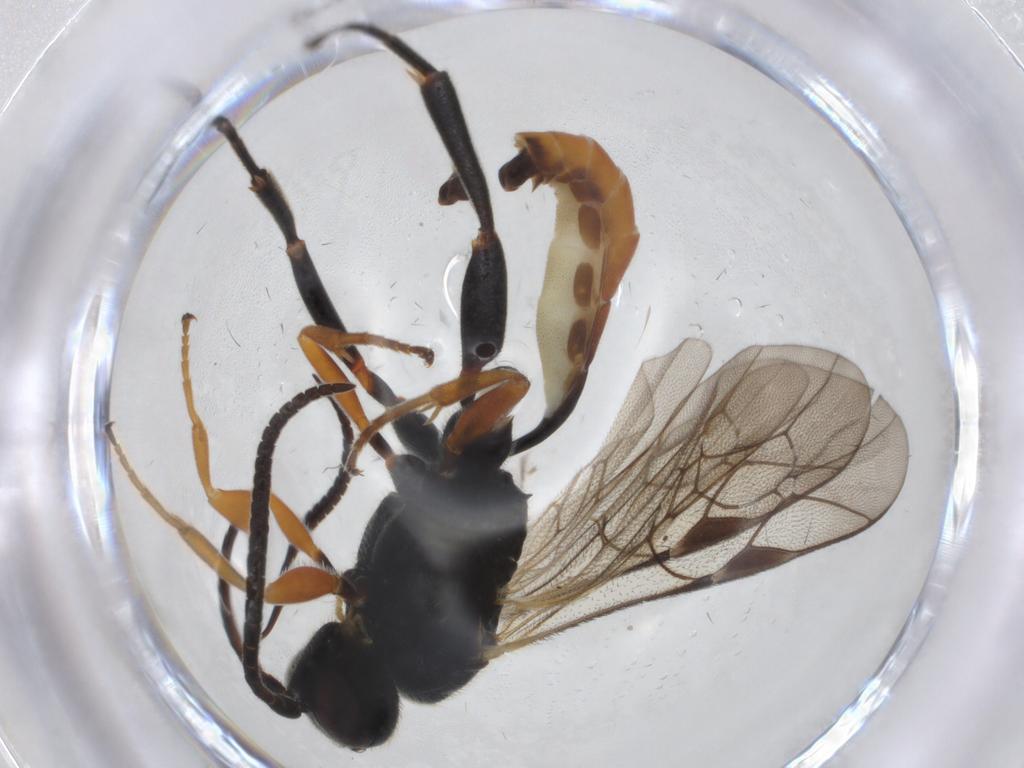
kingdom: Animalia
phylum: Arthropoda
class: Insecta
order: Hymenoptera
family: Ichneumonidae
